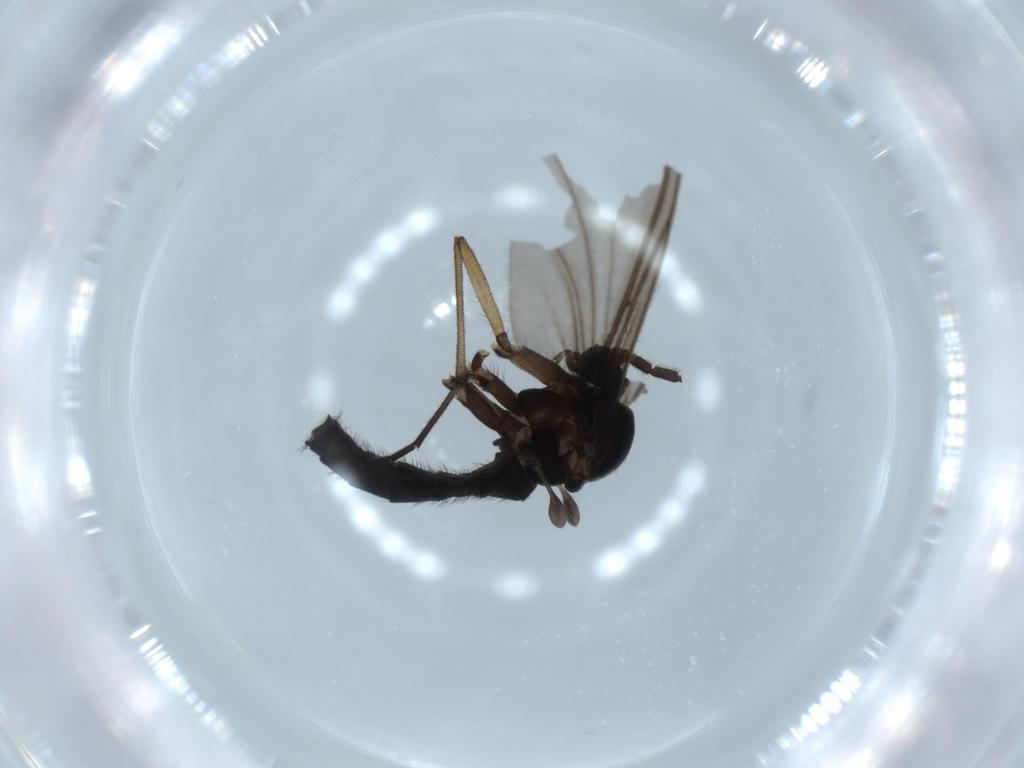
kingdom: Animalia
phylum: Arthropoda
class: Insecta
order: Diptera
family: Sciaridae
